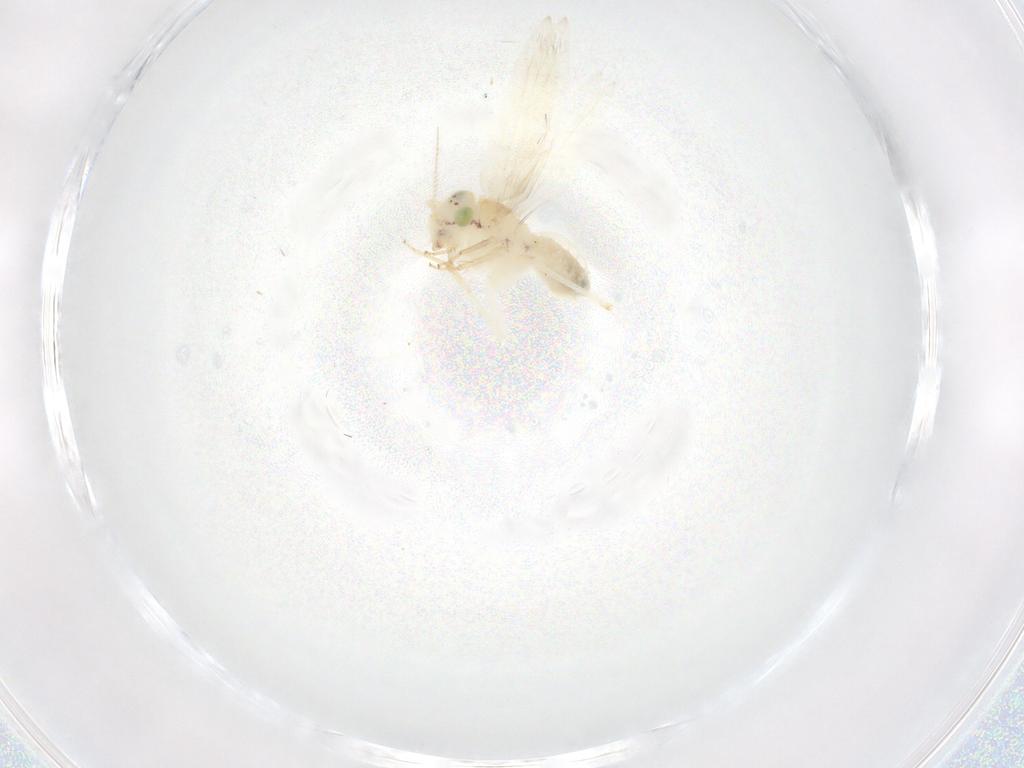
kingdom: Animalia
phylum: Arthropoda
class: Insecta
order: Psocodea
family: Lepidopsocidae
